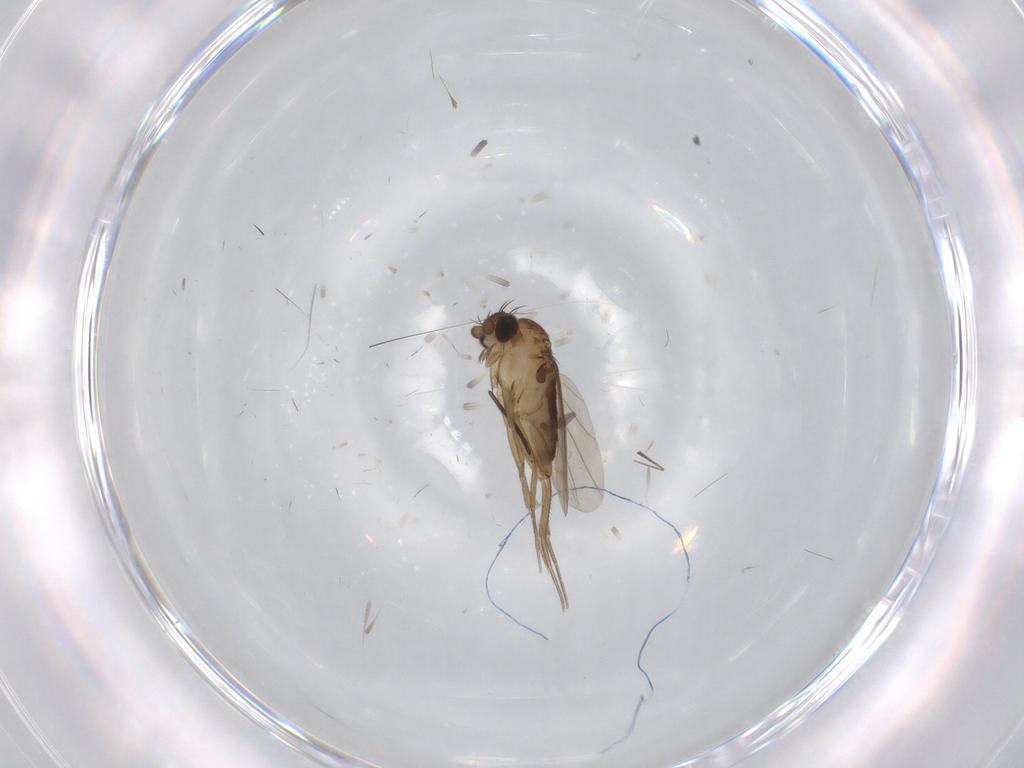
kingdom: Animalia
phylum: Arthropoda
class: Insecta
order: Diptera
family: Phoridae
